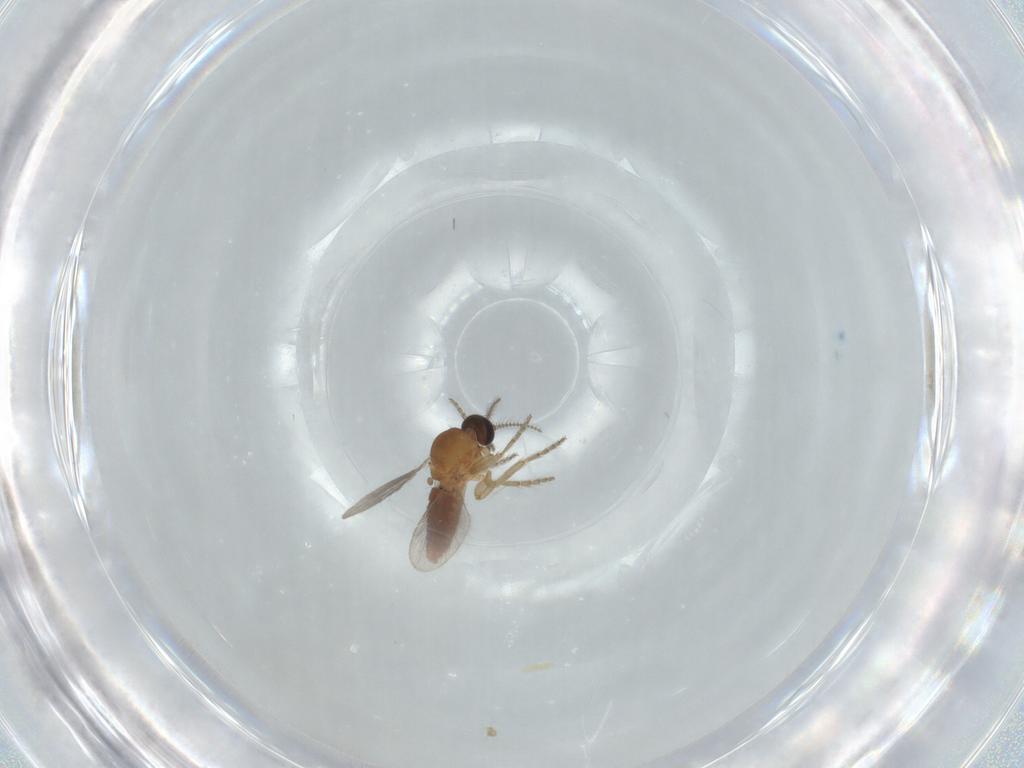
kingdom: Animalia
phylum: Arthropoda
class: Insecta
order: Diptera
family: Ceratopogonidae
